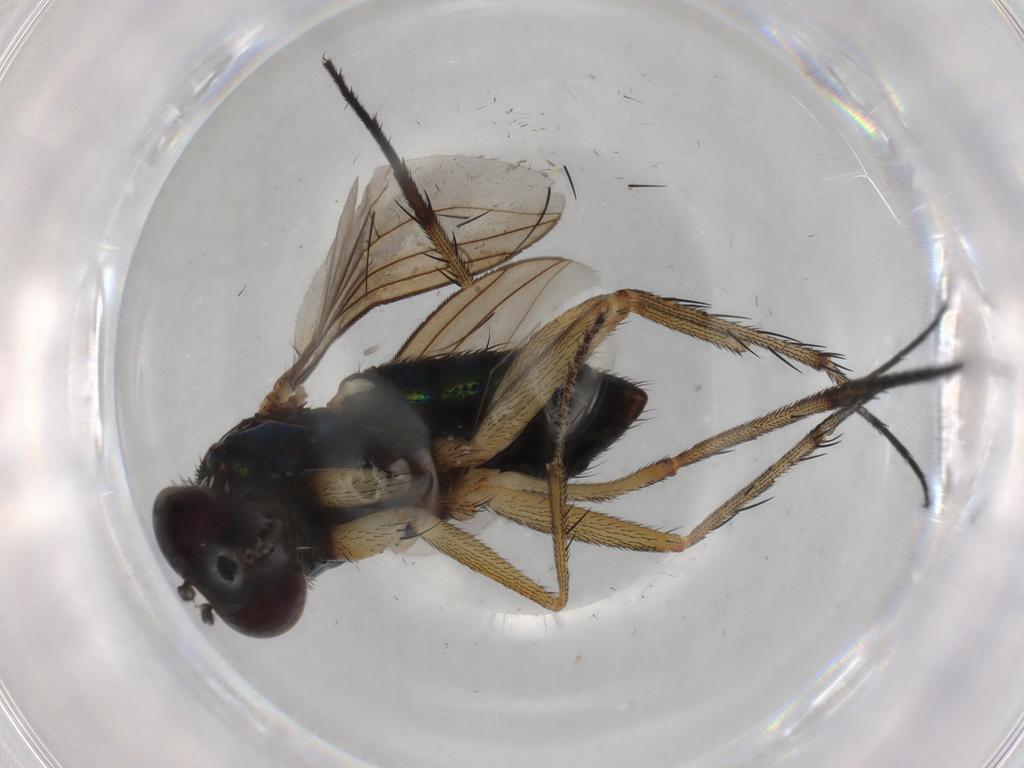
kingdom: Animalia
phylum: Arthropoda
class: Insecta
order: Diptera
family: Dolichopodidae
